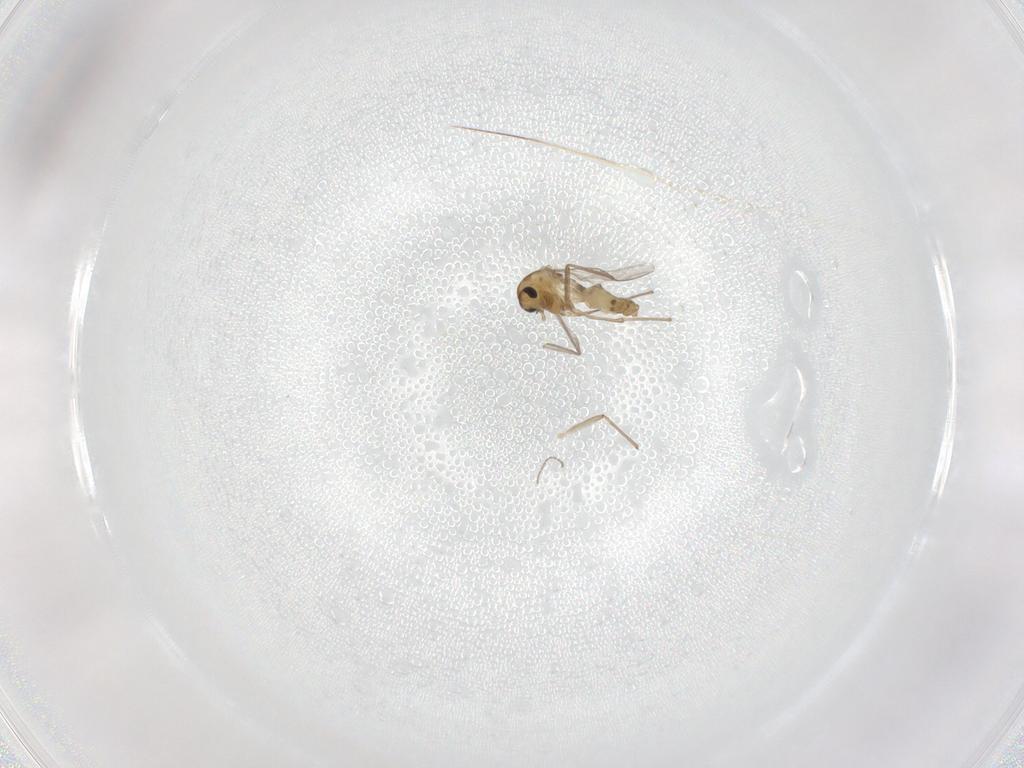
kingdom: Animalia
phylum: Arthropoda
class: Insecta
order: Diptera
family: Chironomidae
